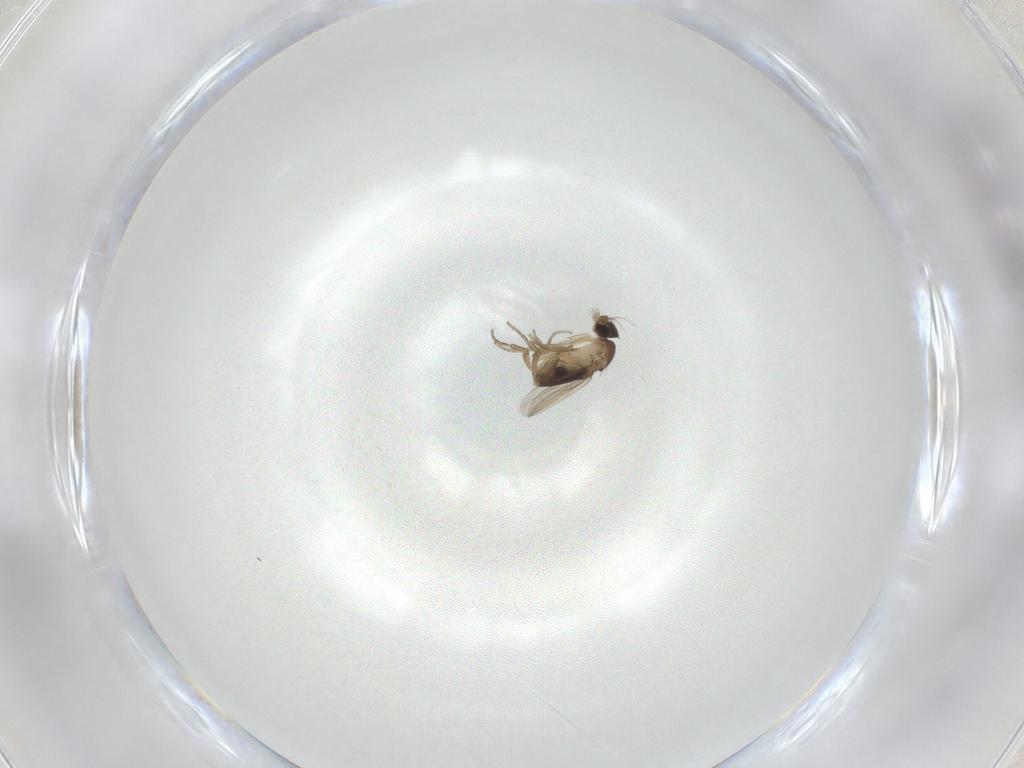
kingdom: Animalia
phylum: Arthropoda
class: Insecta
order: Diptera
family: Phoridae
